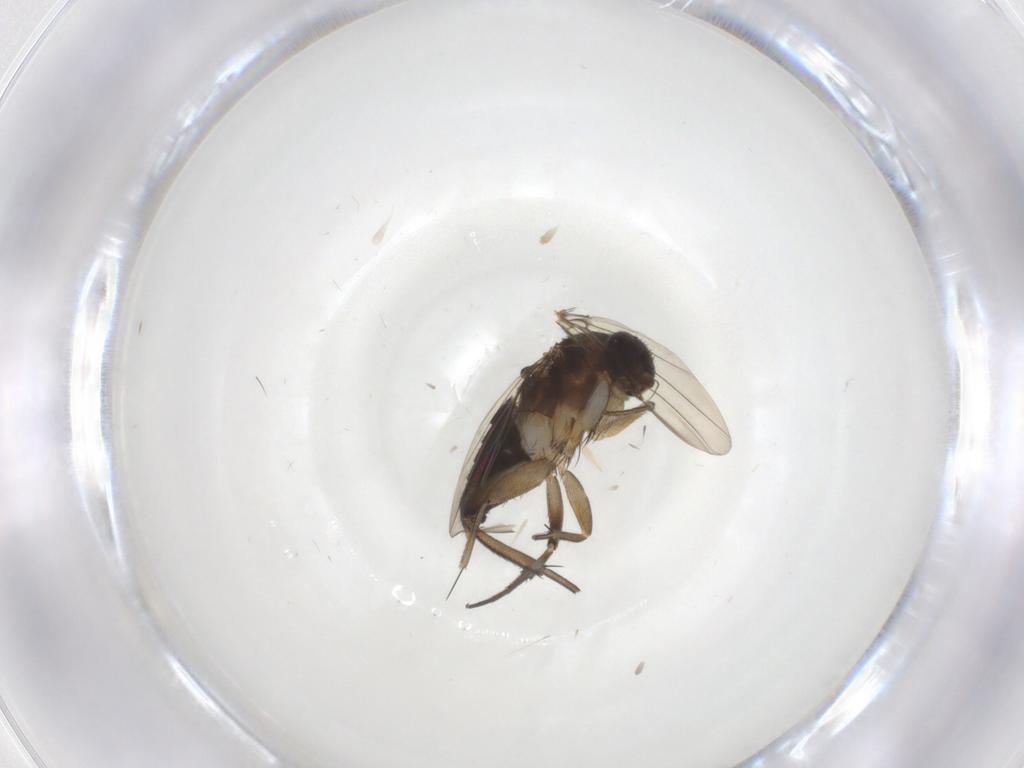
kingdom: Animalia
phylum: Arthropoda
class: Insecta
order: Diptera
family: Phoridae
